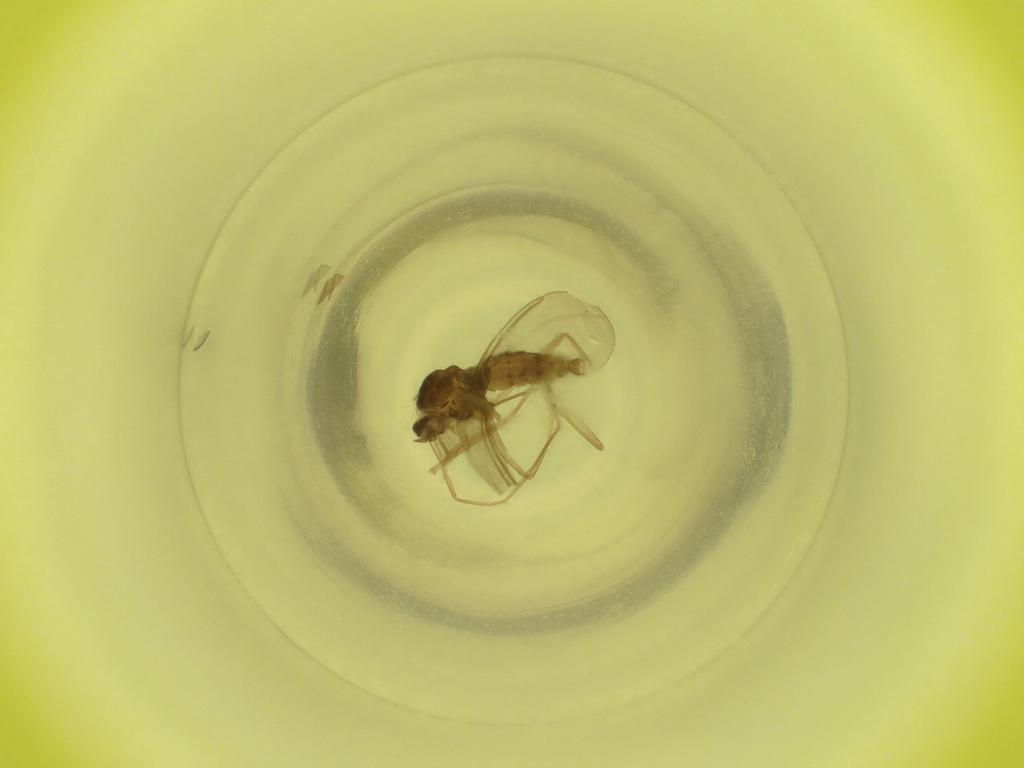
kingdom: Animalia
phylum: Arthropoda
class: Insecta
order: Diptera
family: Cecidomyiidae
